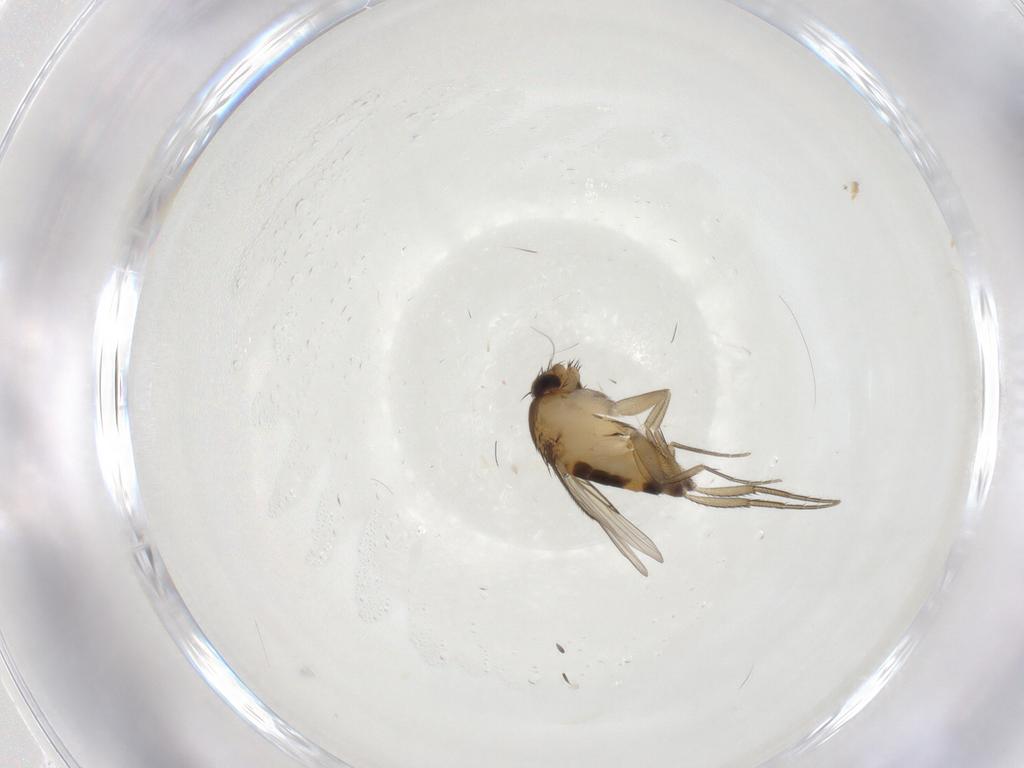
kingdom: Animalia
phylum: Arthropoda
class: Insecta
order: Diptera
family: Phoridae
